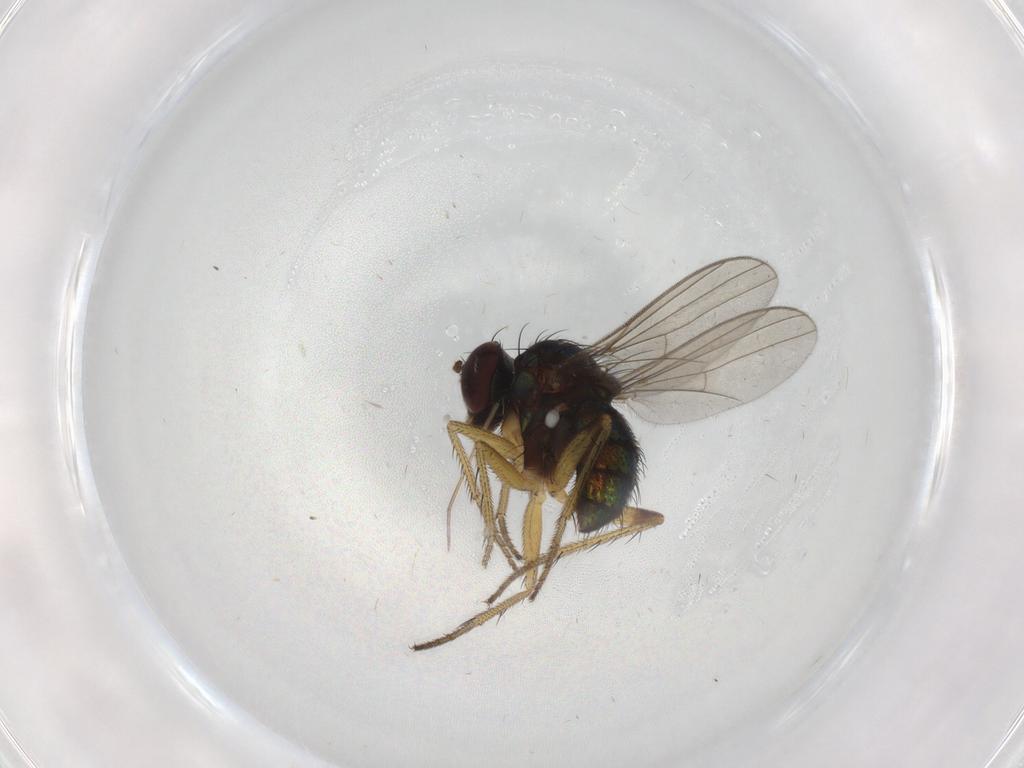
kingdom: Animalia
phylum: Arthropoda
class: Insecta
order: Diptera
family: Dolichopodidae
